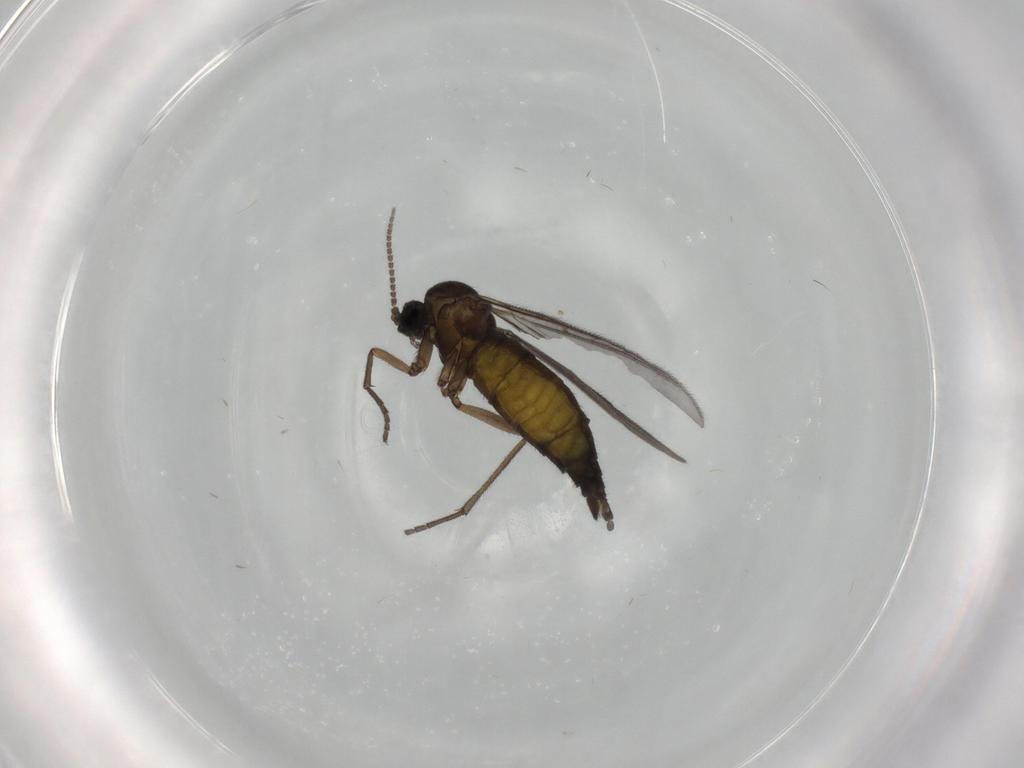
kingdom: Animalia
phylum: Arthropoda
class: Insecta
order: Diptera
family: Sciaridae
